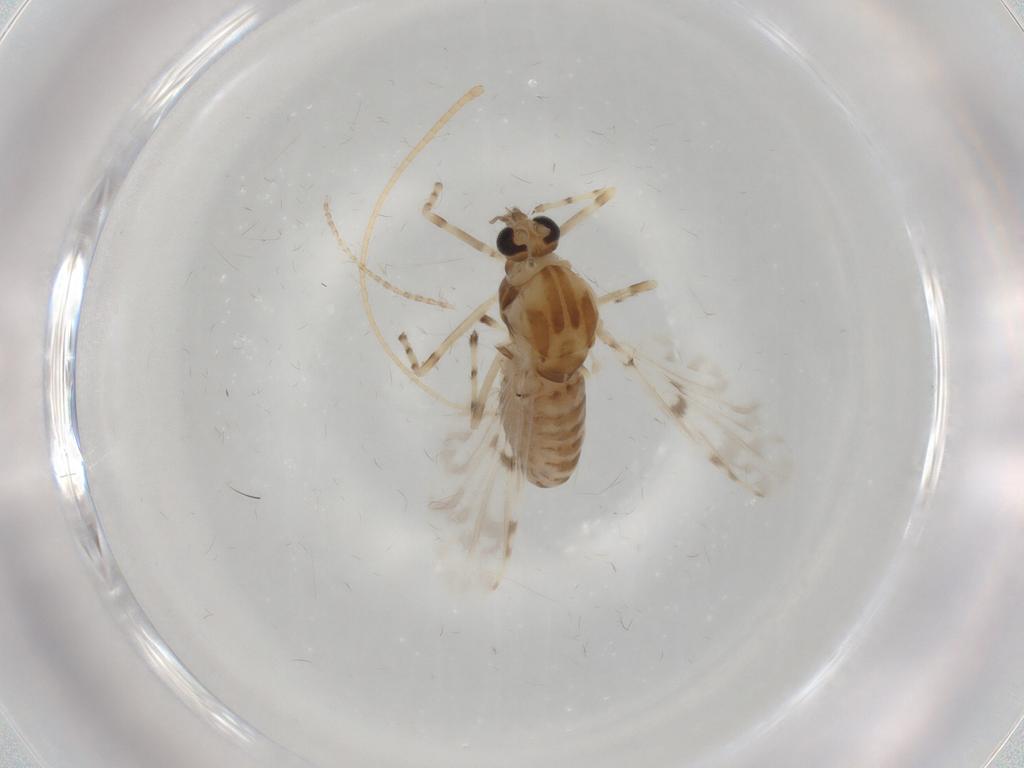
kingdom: Animalia
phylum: Arthropoda
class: Insecta
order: Diptera
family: Chironomidae
